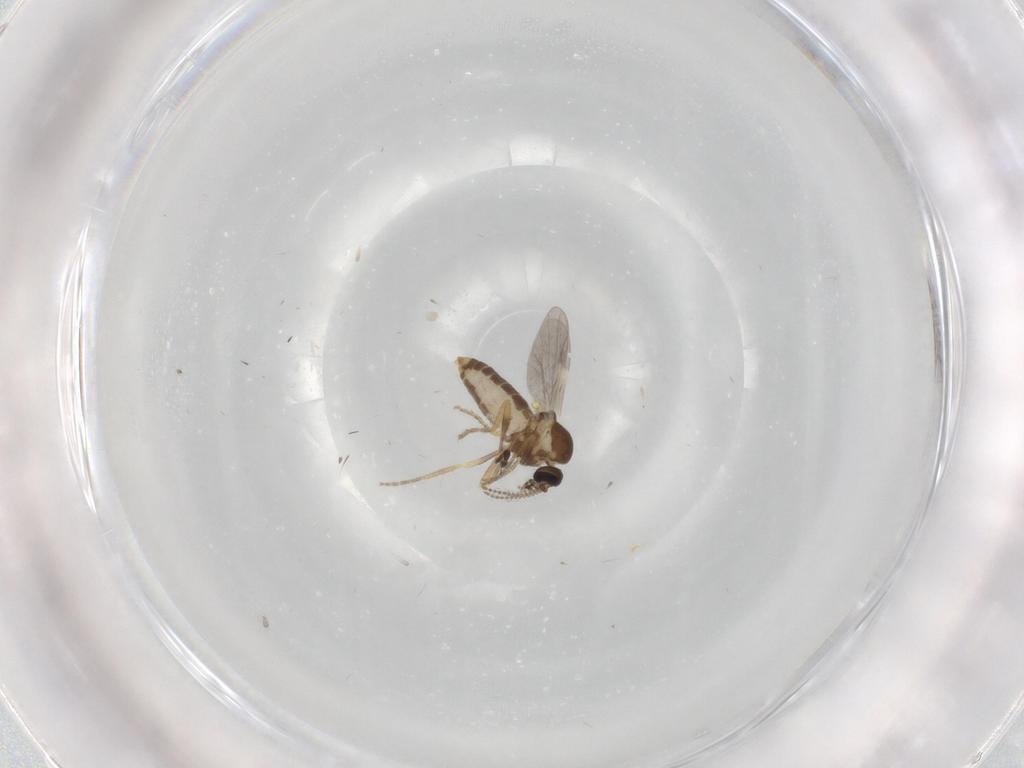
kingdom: Animalia
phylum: Arthropoda
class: Insecta
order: Diptera
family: Ceratopogonidae
